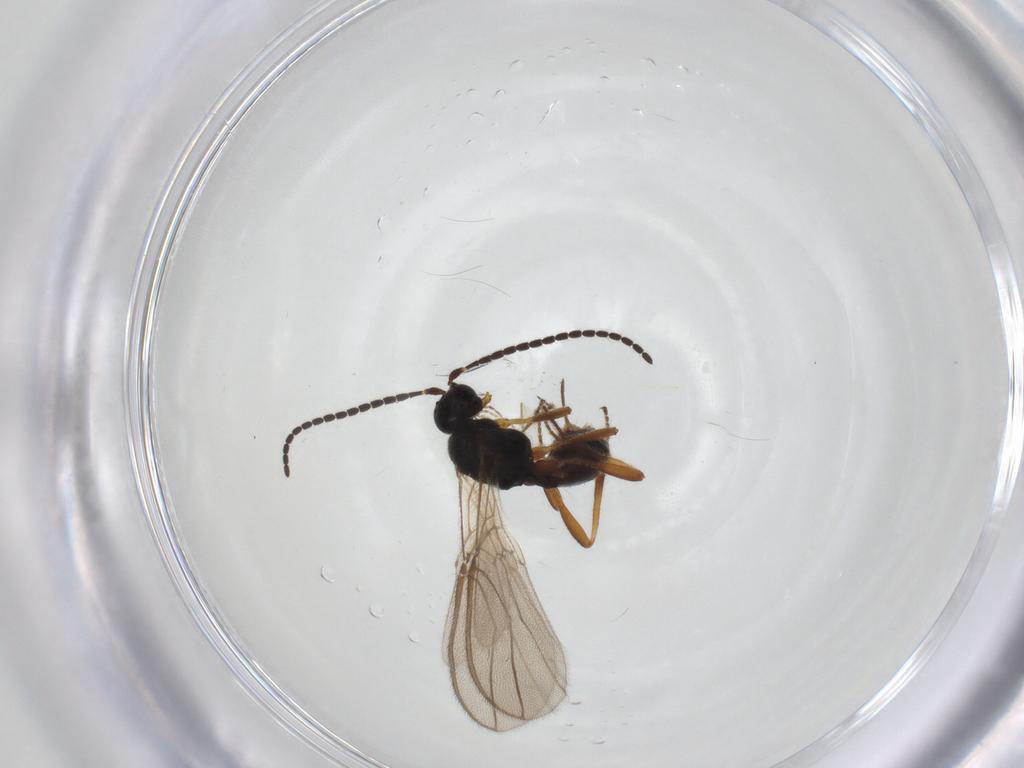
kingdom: Animalia
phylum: Arthropoda
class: Insecta
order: Hymenoptera
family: Braconidae
